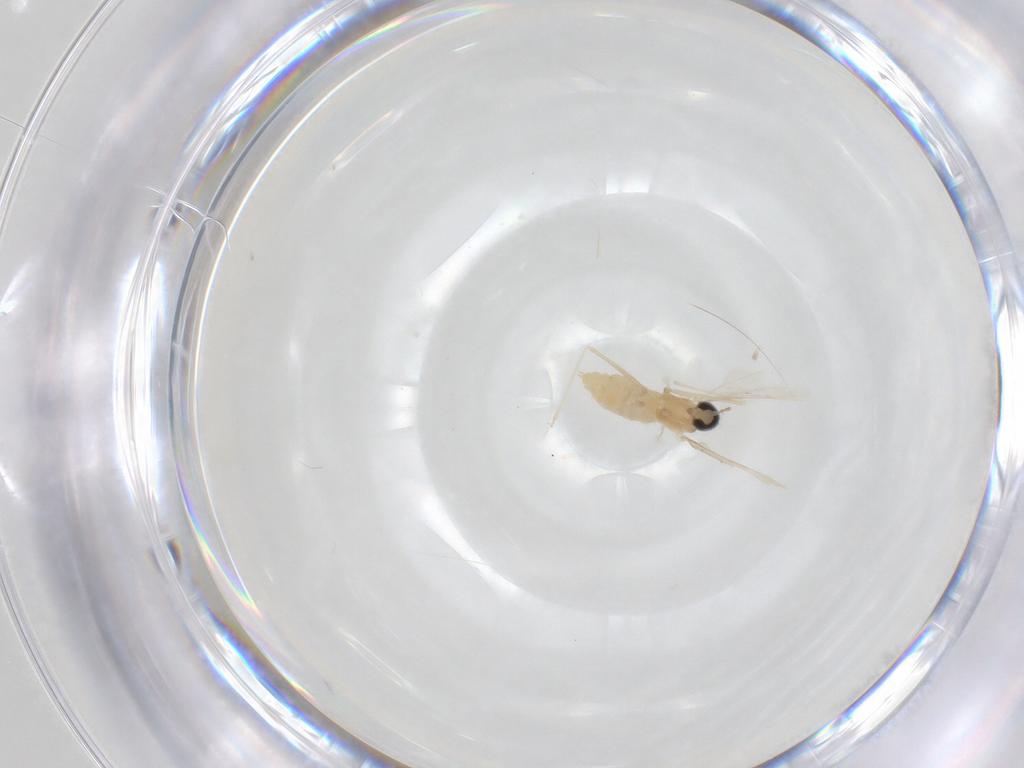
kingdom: Animalia
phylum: Arthropoda
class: Insecta
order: Diptera
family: Cecidomyiidae
